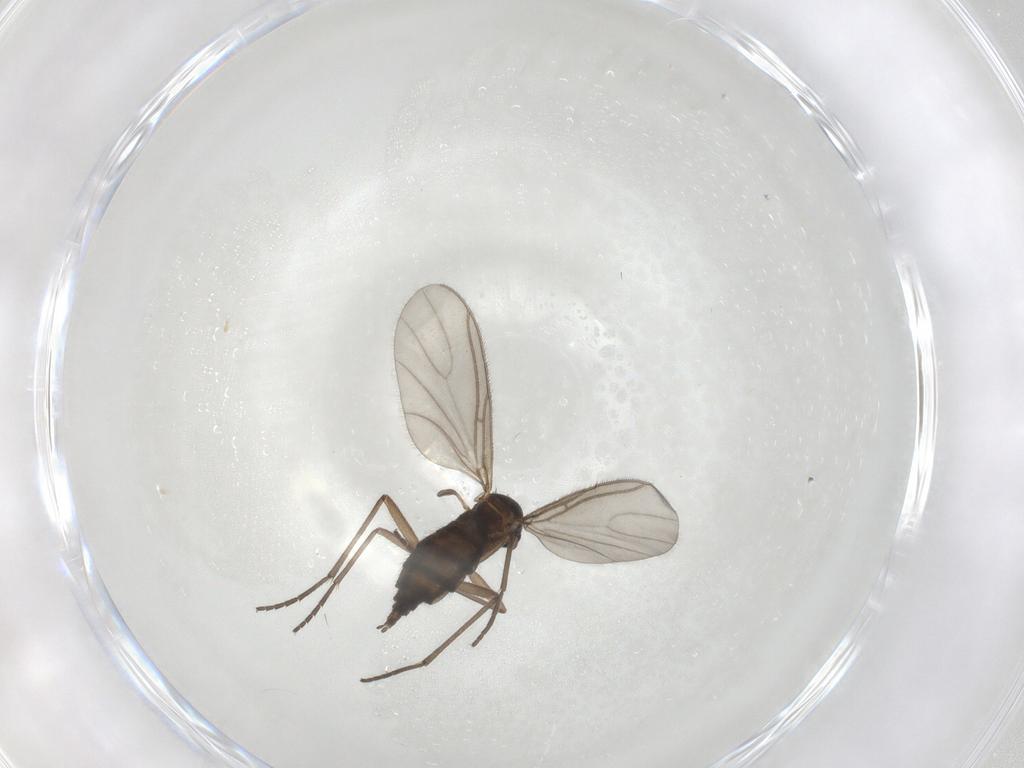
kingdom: Animalia
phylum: Arthropoda
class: Insecta
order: Diptera
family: Sciaridae
